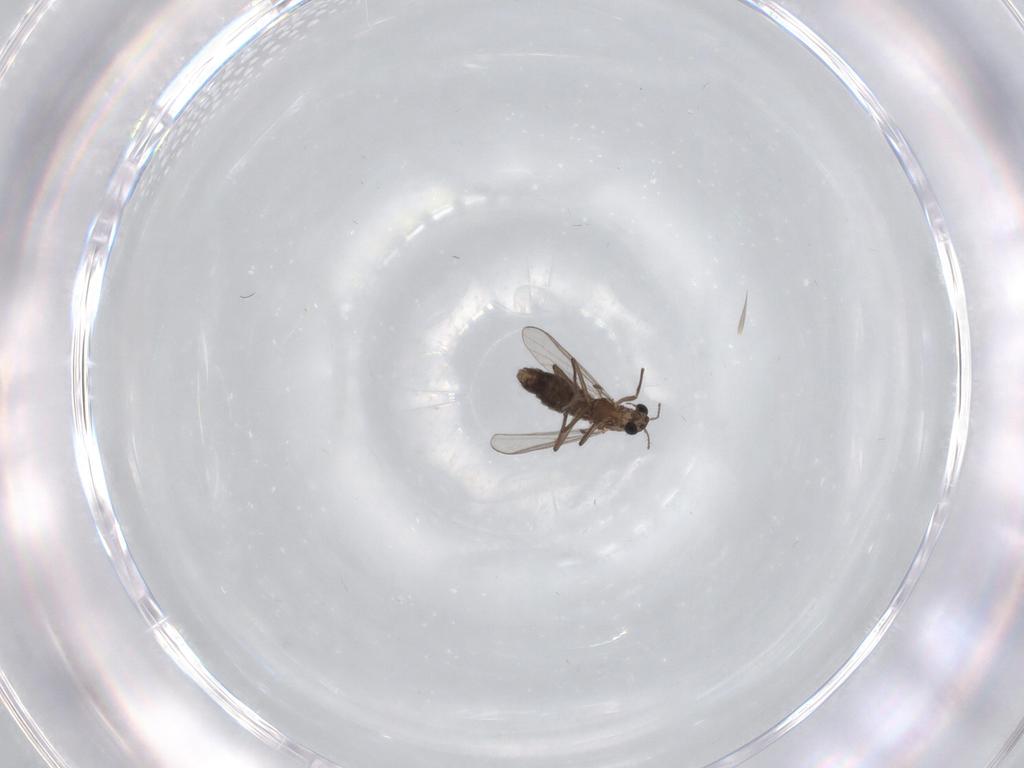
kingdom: Animalia
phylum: Arthropoda
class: Insecta
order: Diptera
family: Chironomidae
